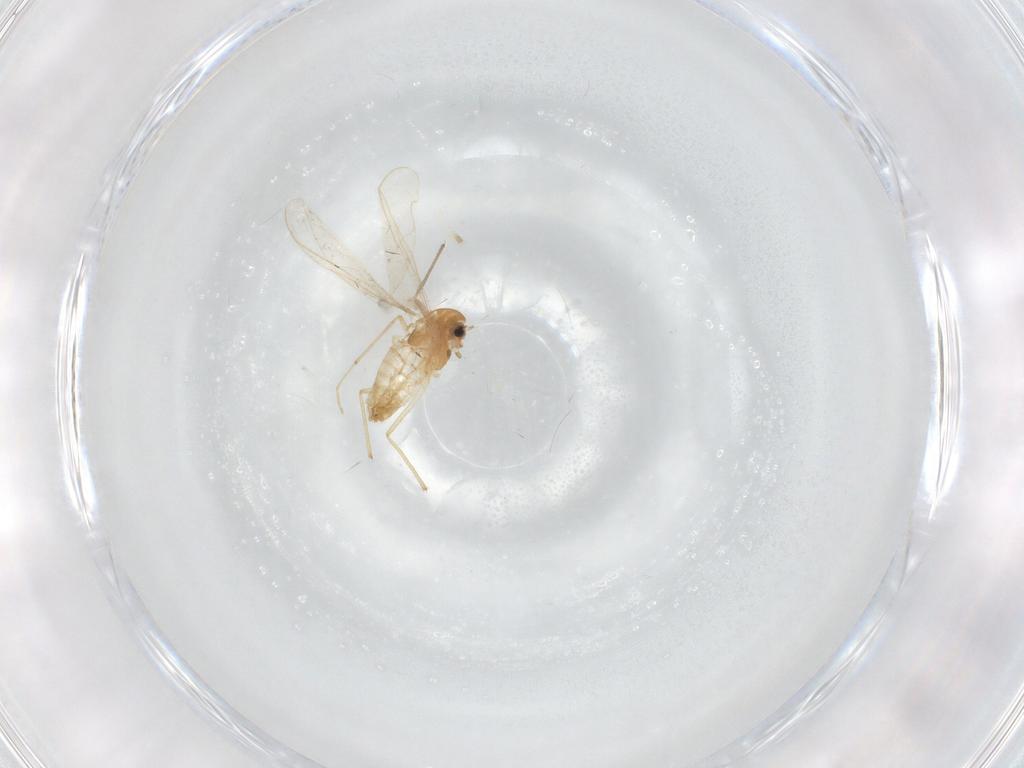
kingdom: Animalia
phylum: Arthropoda
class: Insecta
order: Diptera
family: Chironomidae
